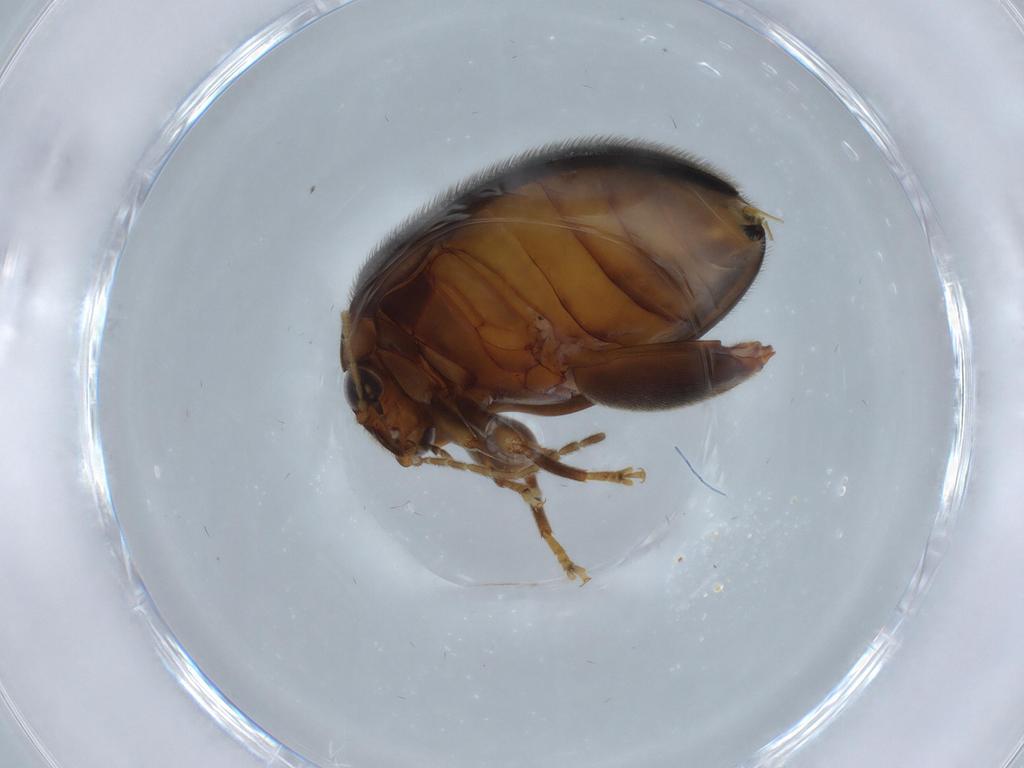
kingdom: Animalia
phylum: Arthropoda
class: Insecta
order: Coleoptera
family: Scirtidae
